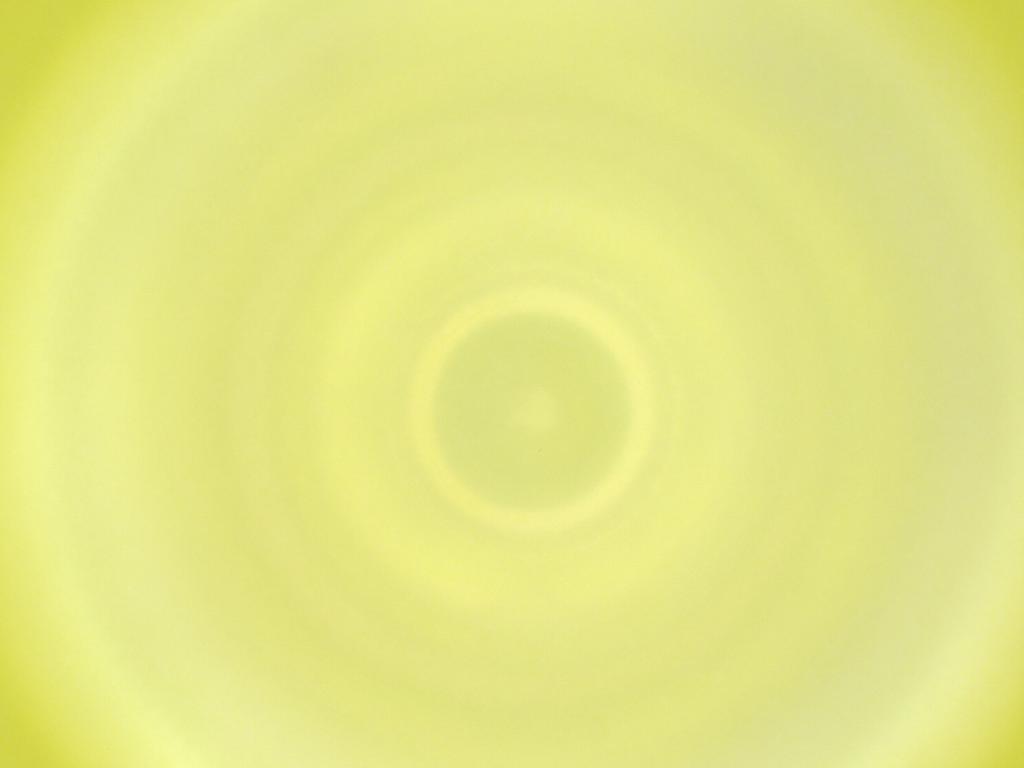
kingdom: Animalia
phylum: Arthropoda
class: Insecta
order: Diptera
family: Cecidomyiidae
